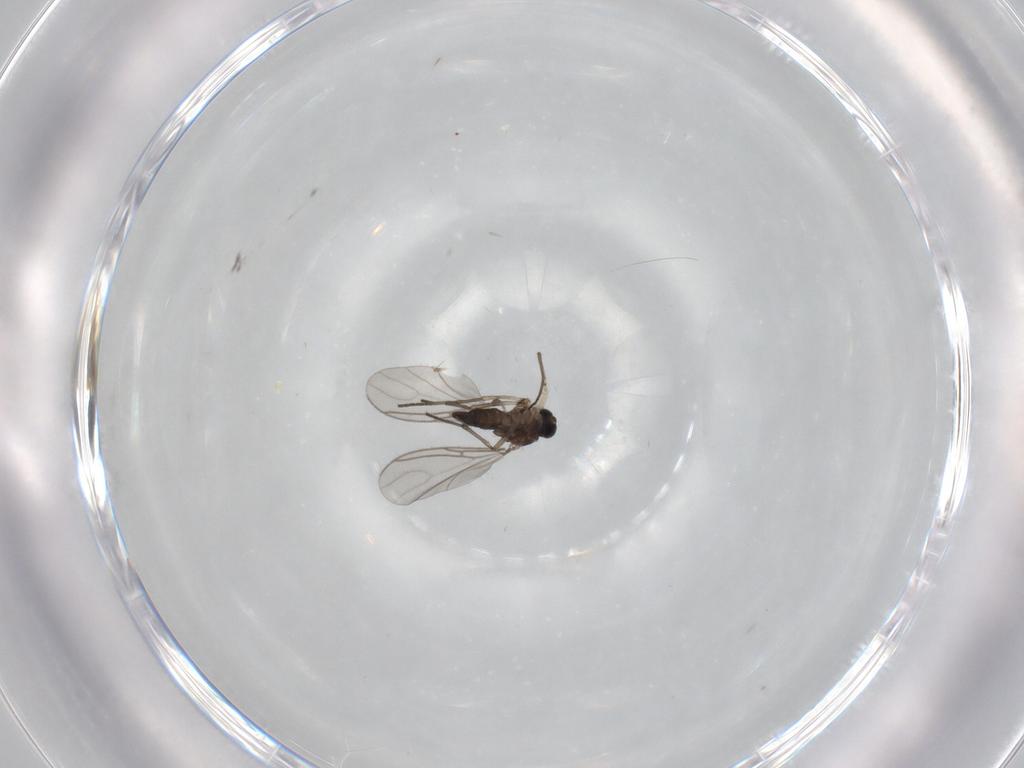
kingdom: Animalia
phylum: Arthropoda
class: Insecta
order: Diptera
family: Sciaridae
